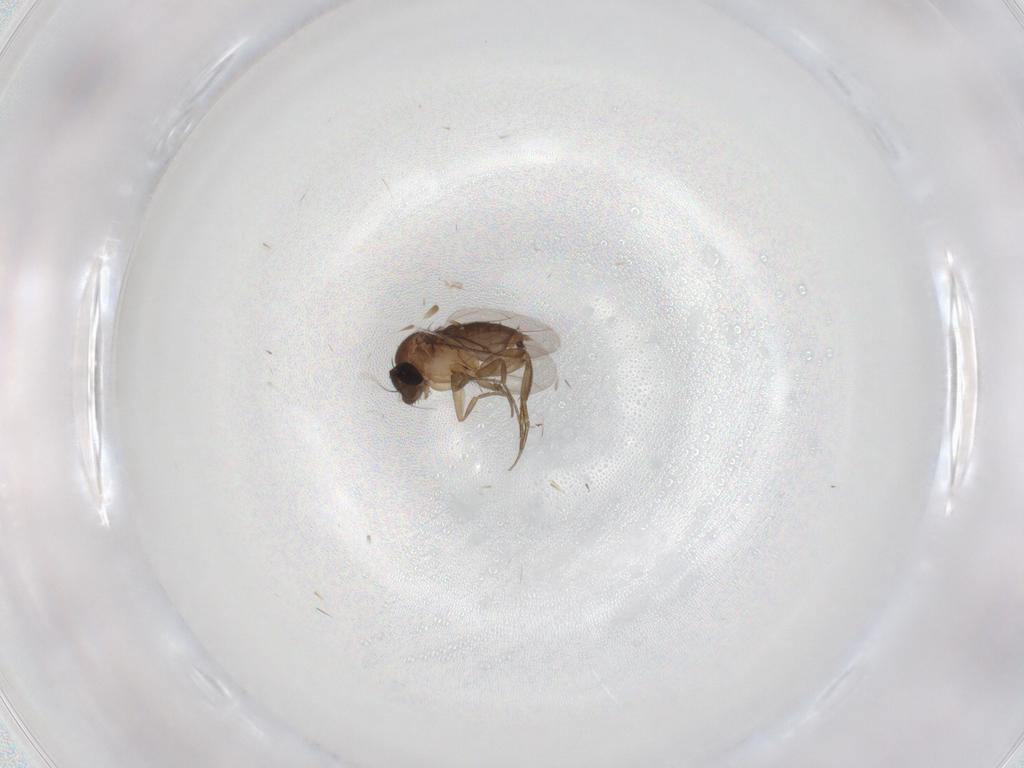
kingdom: Animalia
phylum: Arthropoda
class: Insecta
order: Diptera
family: Phoridae
